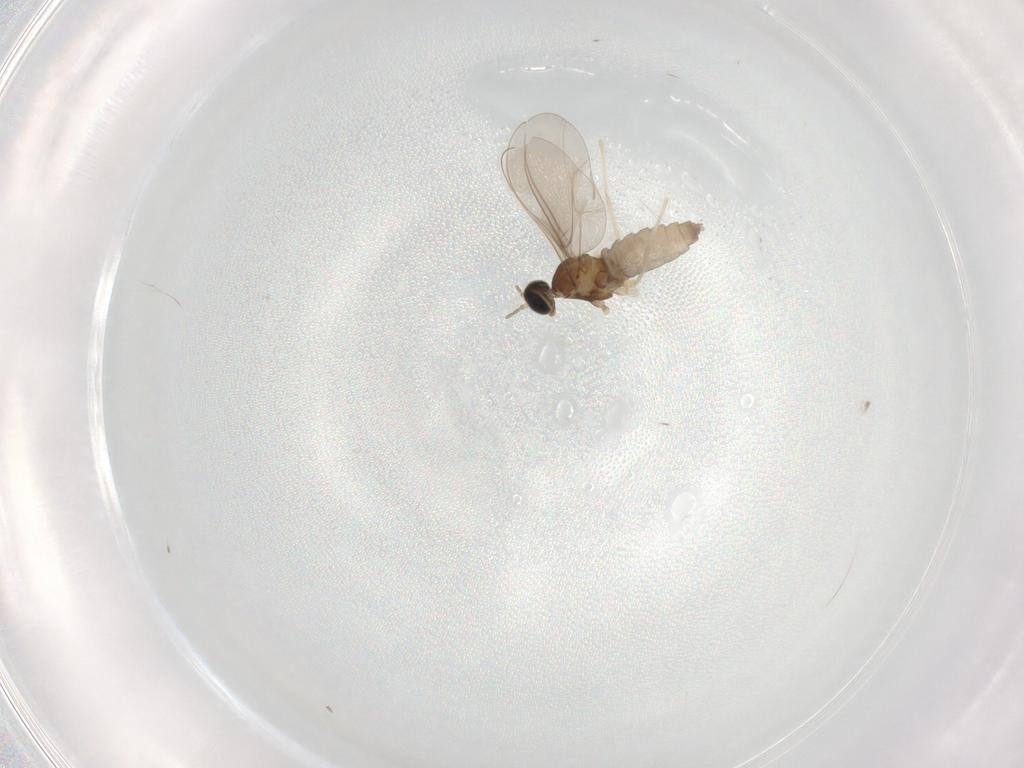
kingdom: Animalia
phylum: Arthropoda
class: Insecta
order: Diptera
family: Cecidomyiidae
